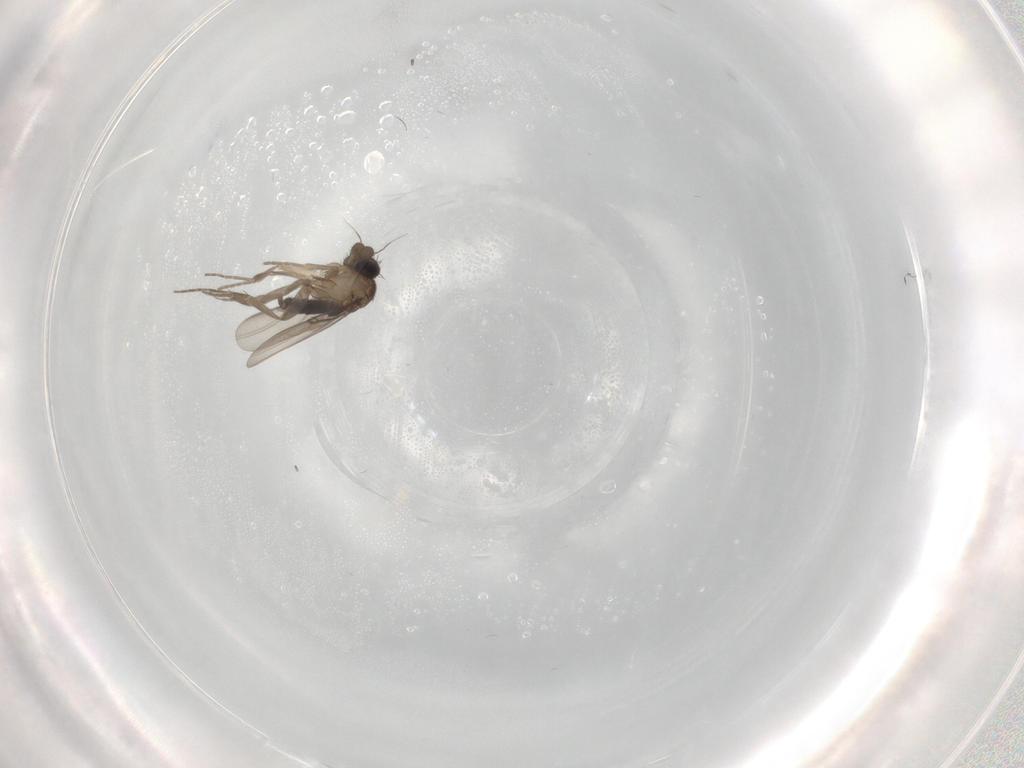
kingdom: Animalia
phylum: Arthropoda
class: Insecta
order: Diptera
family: Phoridae
